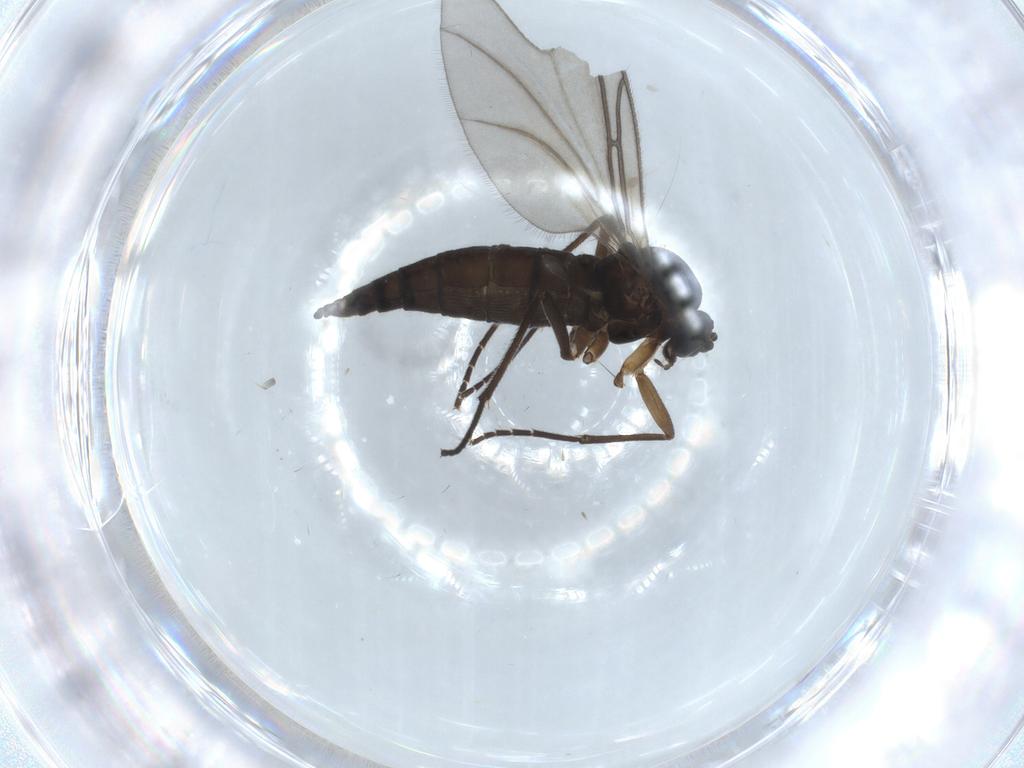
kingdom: Animalia
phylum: Arthropoda
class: Insecta
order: Diptera
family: Sciaridae
